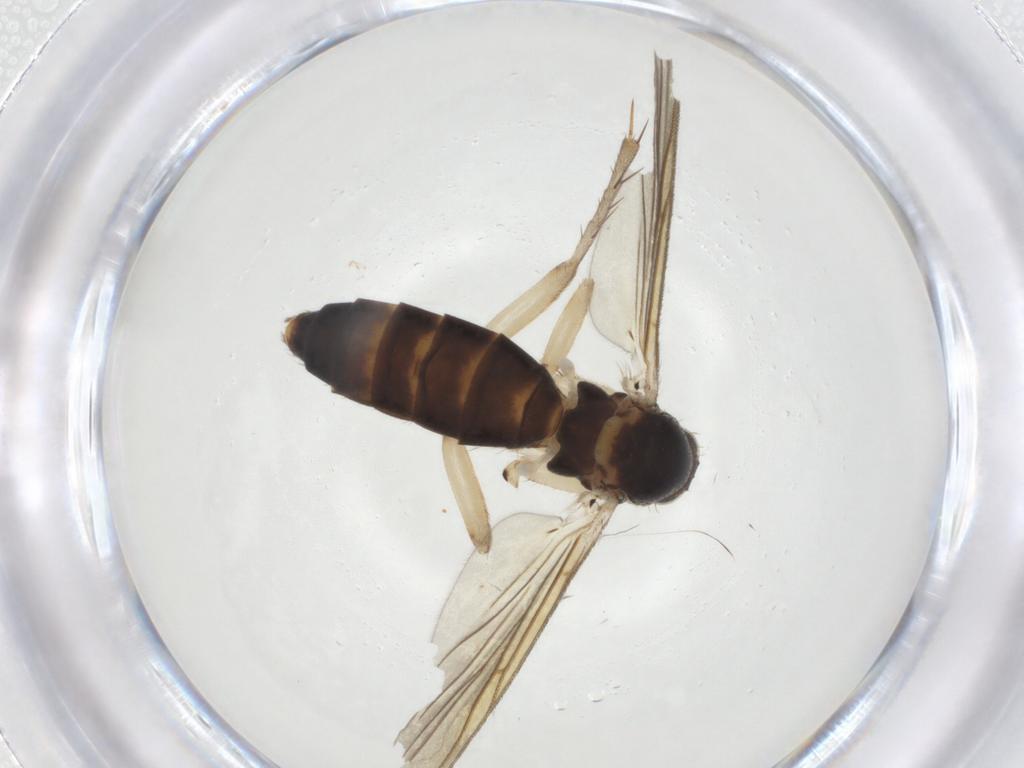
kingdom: Animalia
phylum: Arthropoda
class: Insecta
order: Diptera
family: Mycetophilidae
